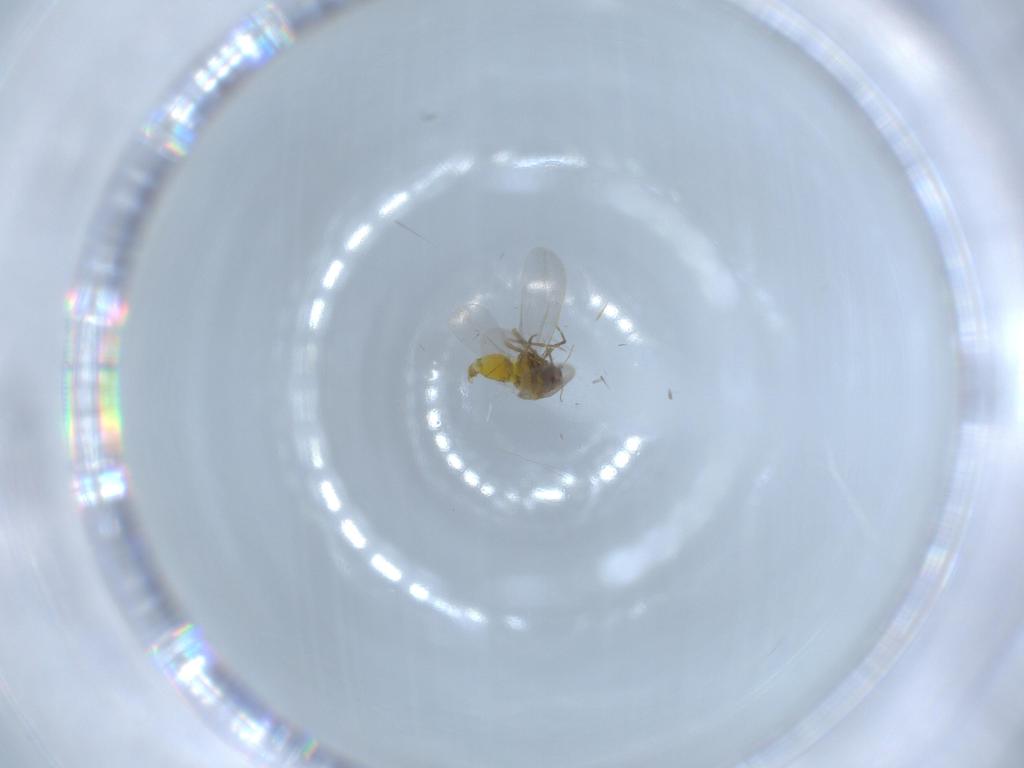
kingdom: Animalia
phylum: Arthropoda
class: Insecta
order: Hemiptera
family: Aleyrodidae
